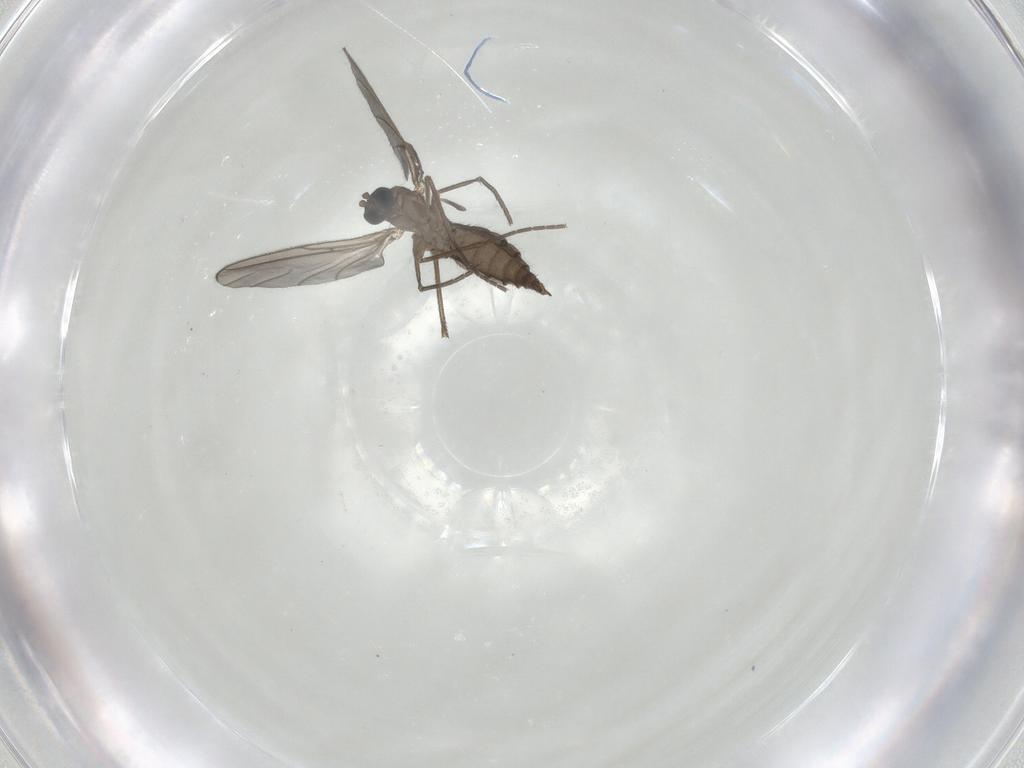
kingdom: Animalia
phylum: Arthropoda
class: Insecta
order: Diptera
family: Sciaridae
